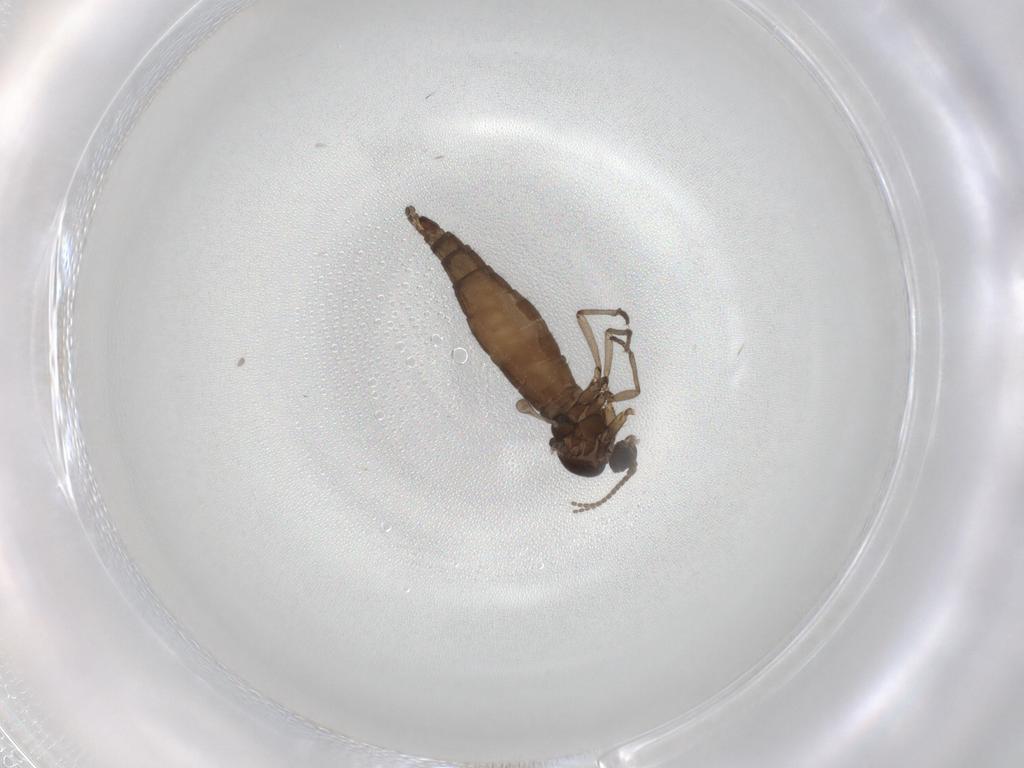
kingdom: Animalia
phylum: Arthropoda
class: Insecta
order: Diptera
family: Sciaridae
